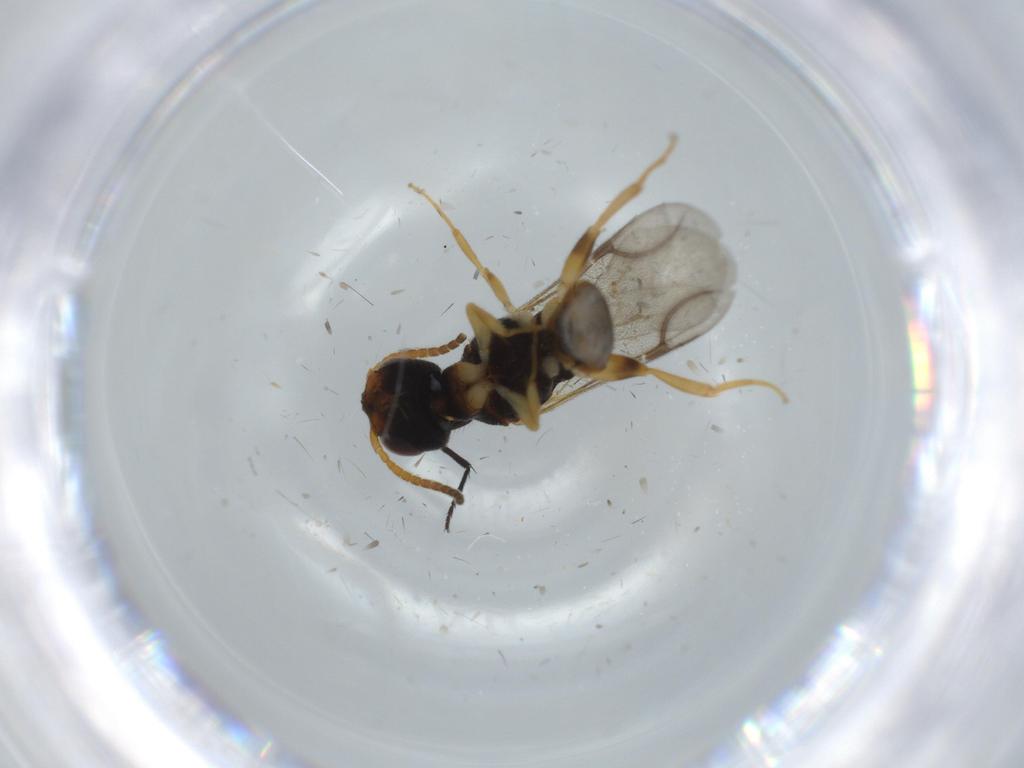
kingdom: Animalia
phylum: Arthropoda
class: Insecta
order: Hymenoptera
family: Bethylidae
